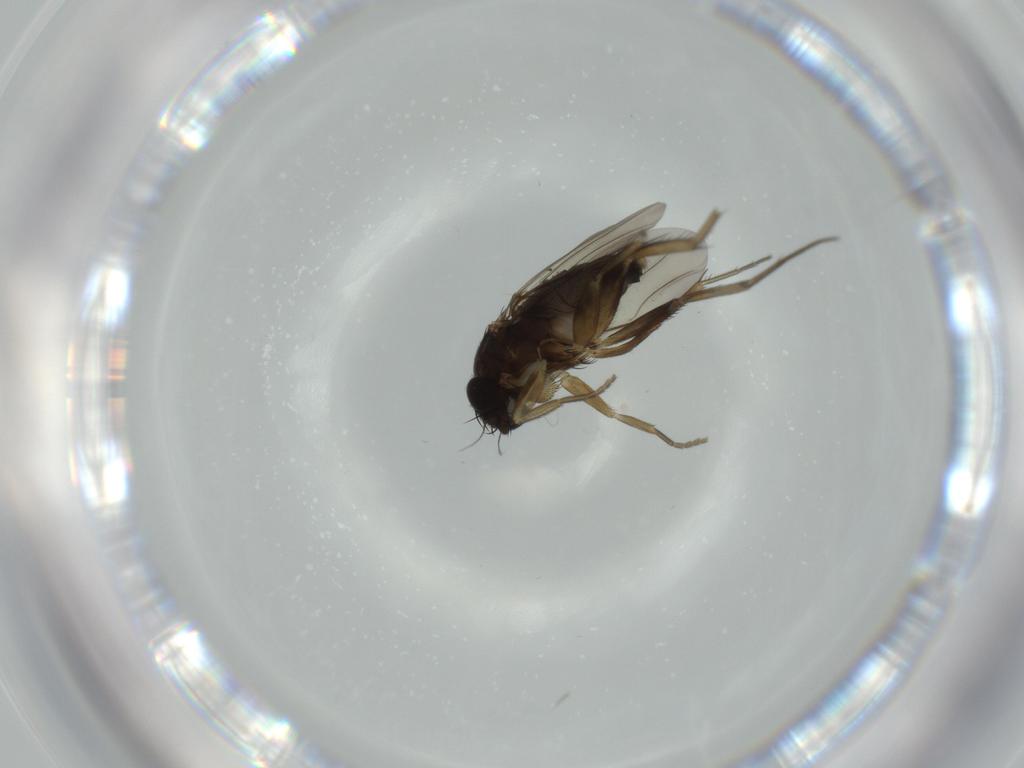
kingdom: Animalia
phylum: Arthropoda
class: Insecta
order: Diptera
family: Phoridae
